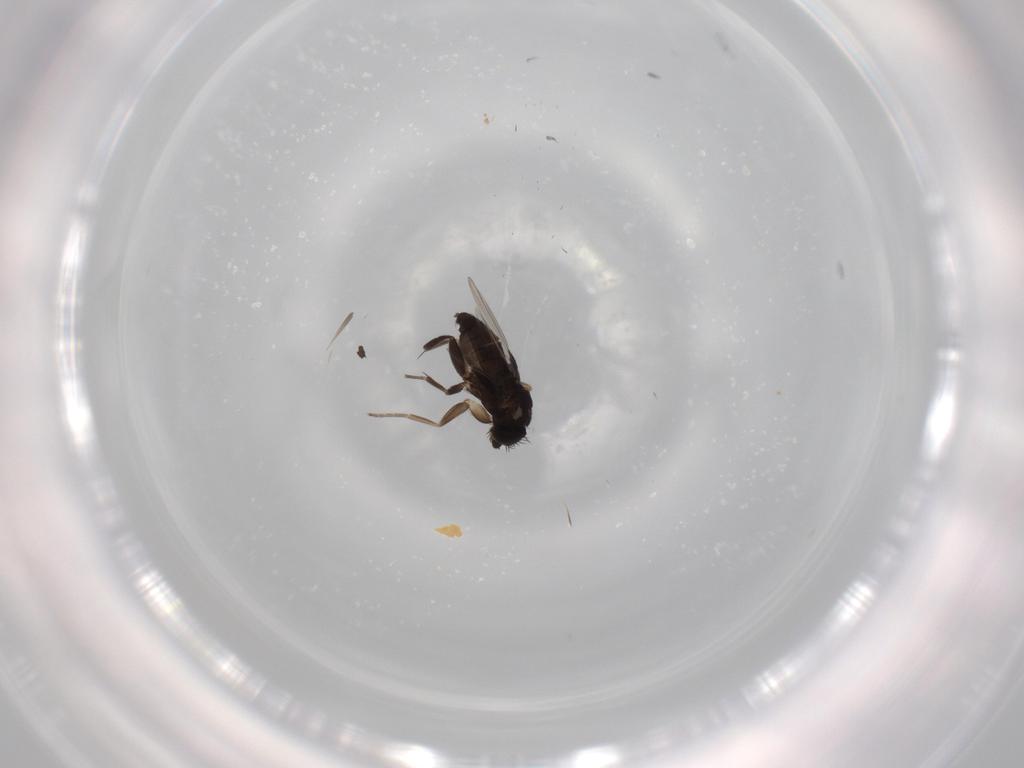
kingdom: Animalia
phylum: Arthropoda
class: Insecta
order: Diptera
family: Phoridae
